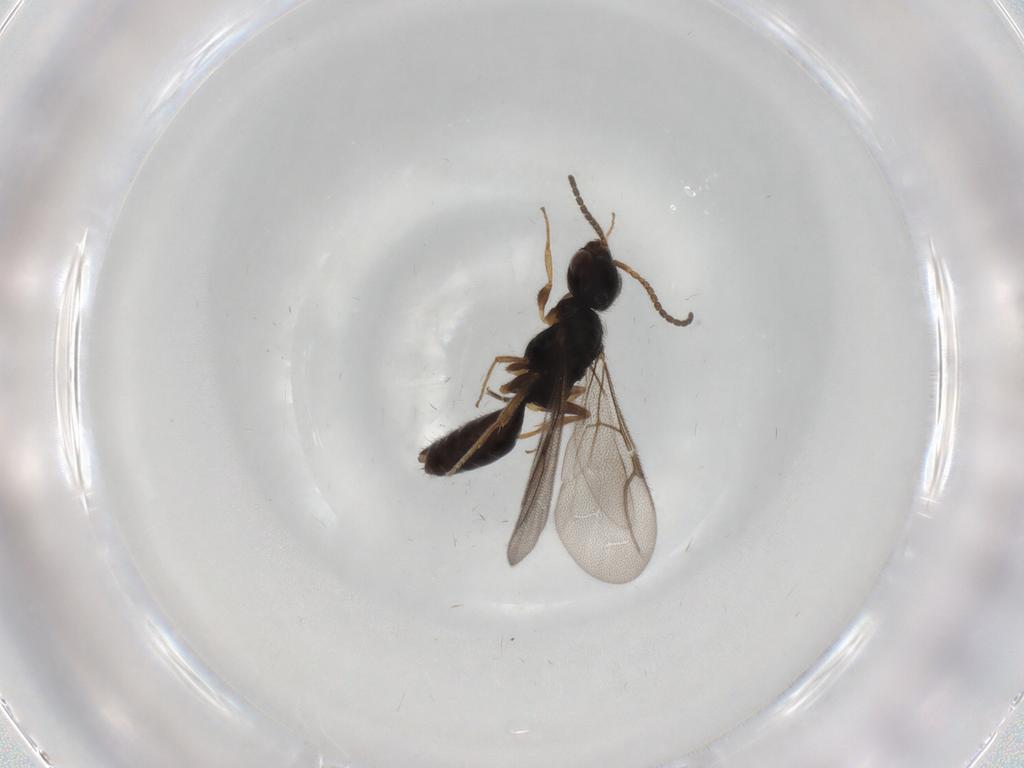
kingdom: Animalia
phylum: Arthropoda
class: Insecta
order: Hymenoptera
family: Bethylidae
